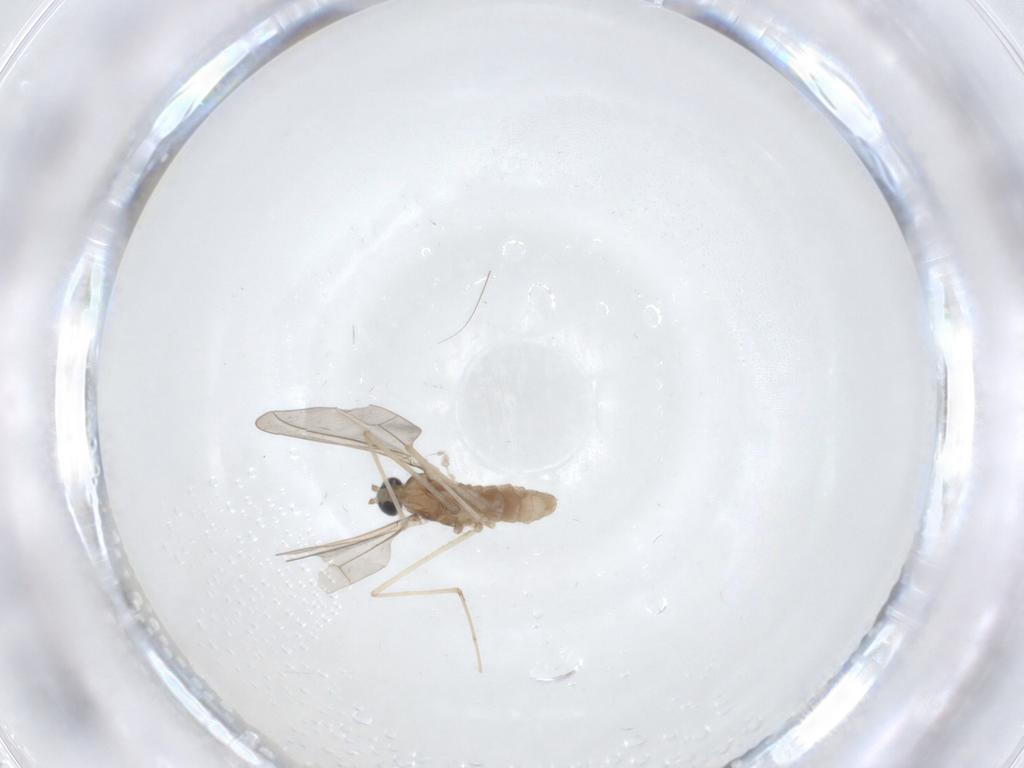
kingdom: Animalia
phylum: Arthropoda
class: Insecta
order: Diptera
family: Cecidomyiidae
